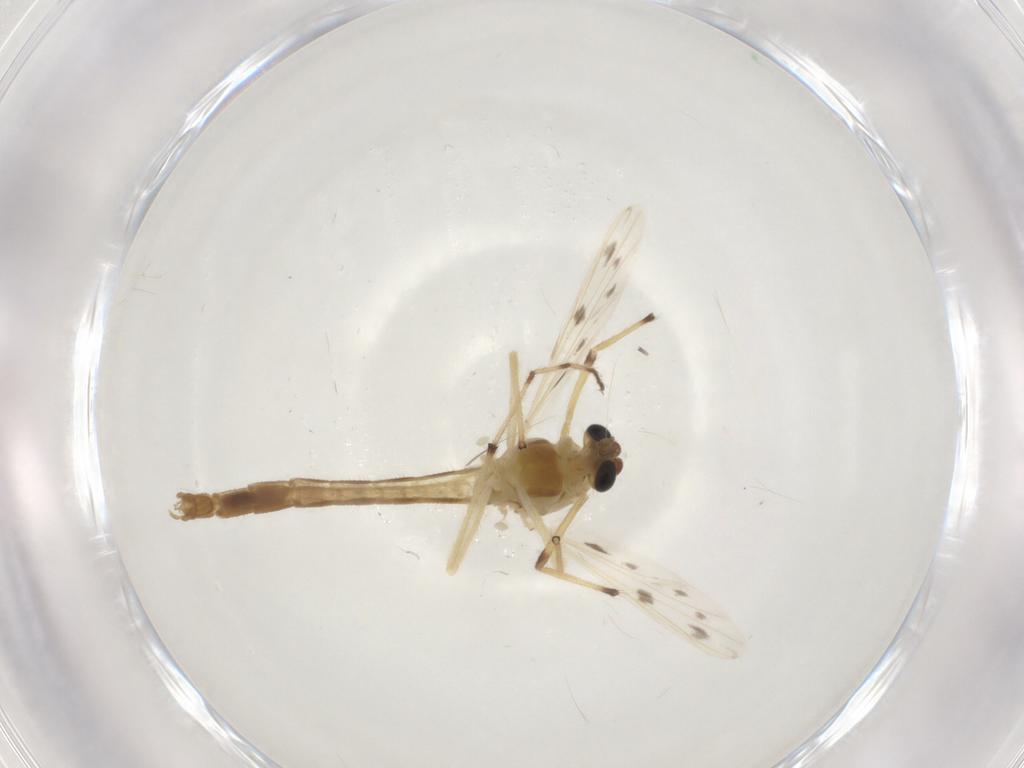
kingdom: Animalia
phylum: Arthropoda
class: Insecta
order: Diptera
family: Chironomidae
